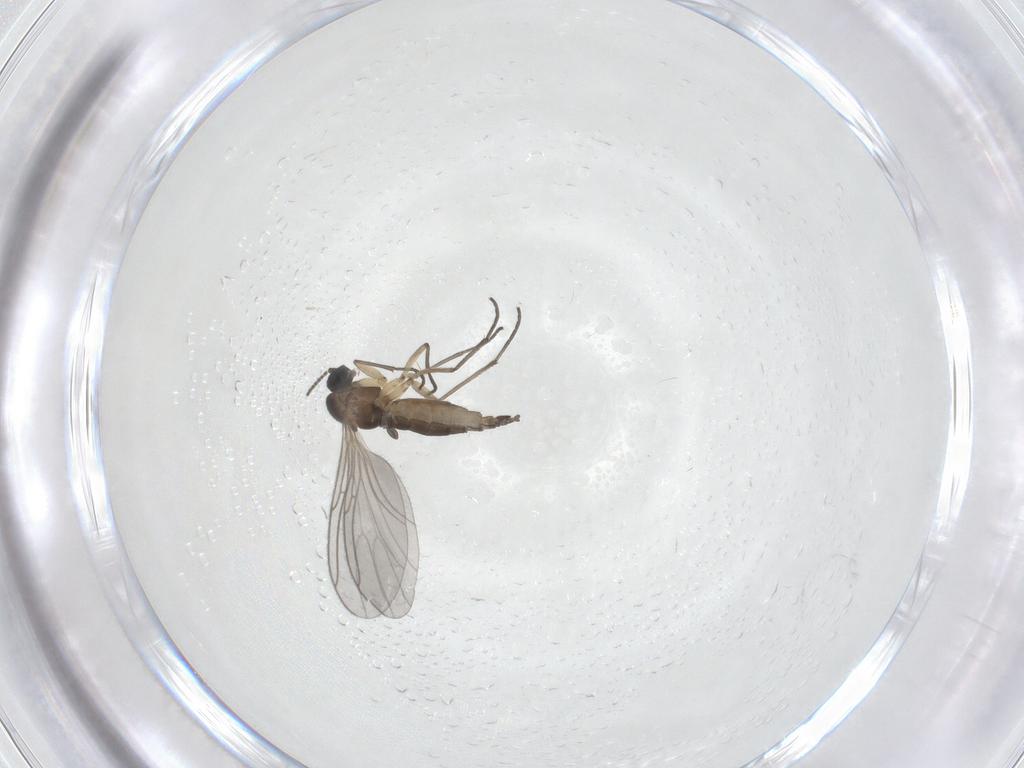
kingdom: Animalia
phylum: Arthropoda
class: Insecta
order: Diptera
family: Hybotidae
